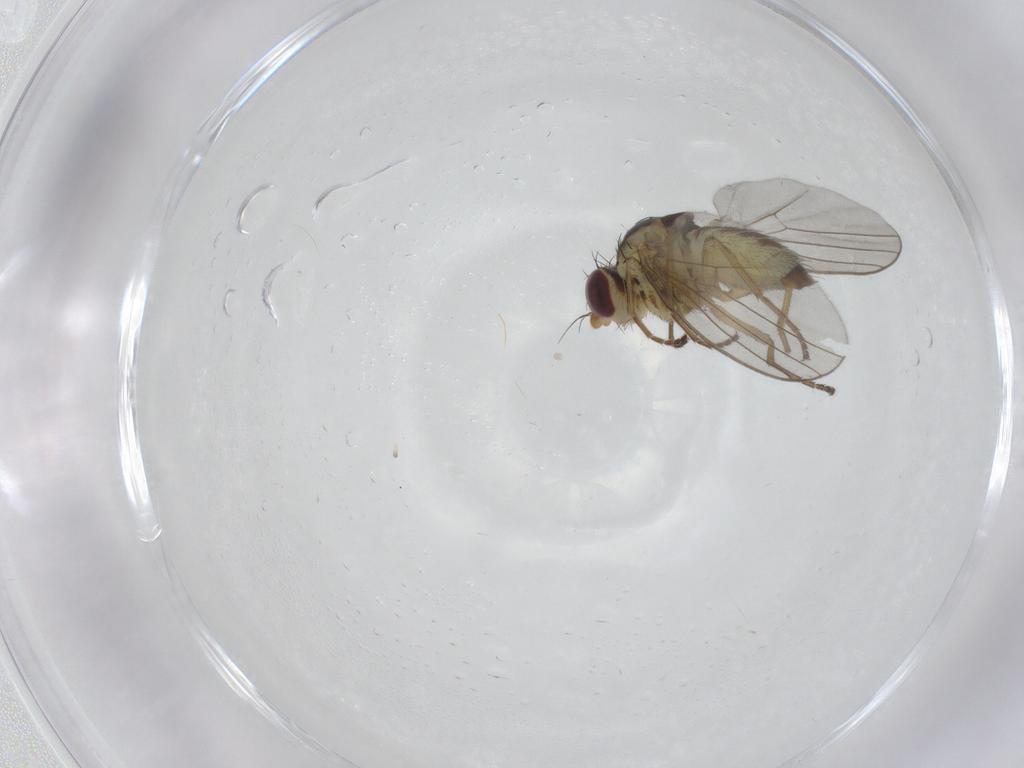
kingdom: Animalia
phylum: Arthropoda
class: Insecta
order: Diptera
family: Agromyzidae
